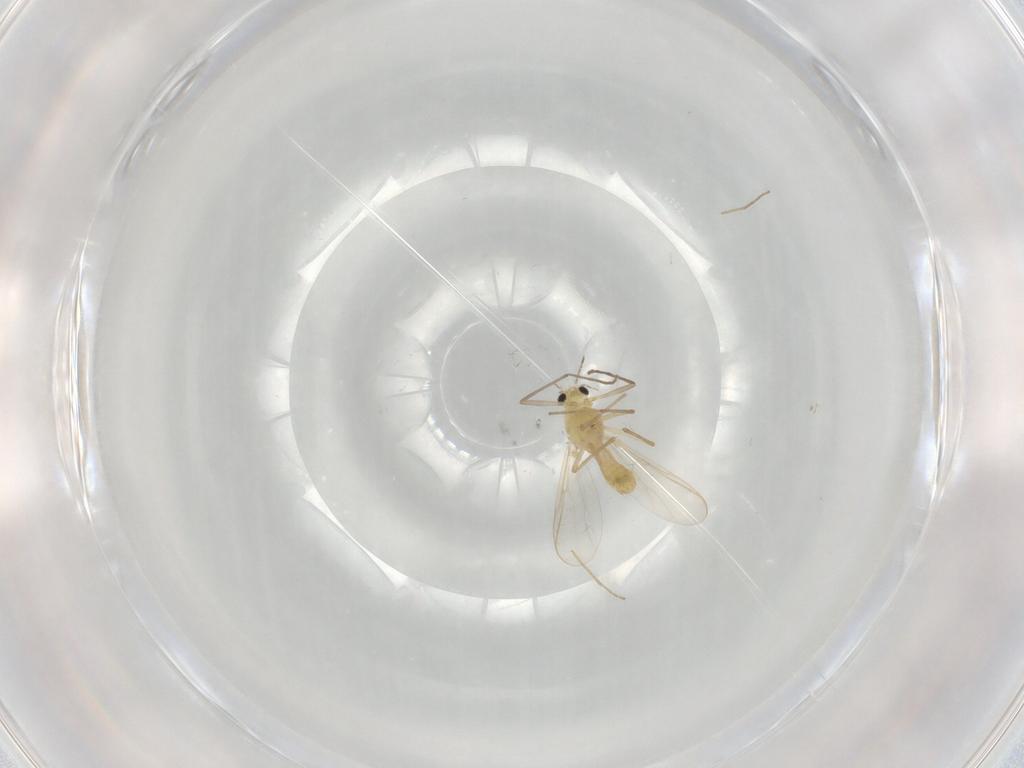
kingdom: Animalia
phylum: Arthropoda
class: Insecta
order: Diptera
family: Chironomidae
